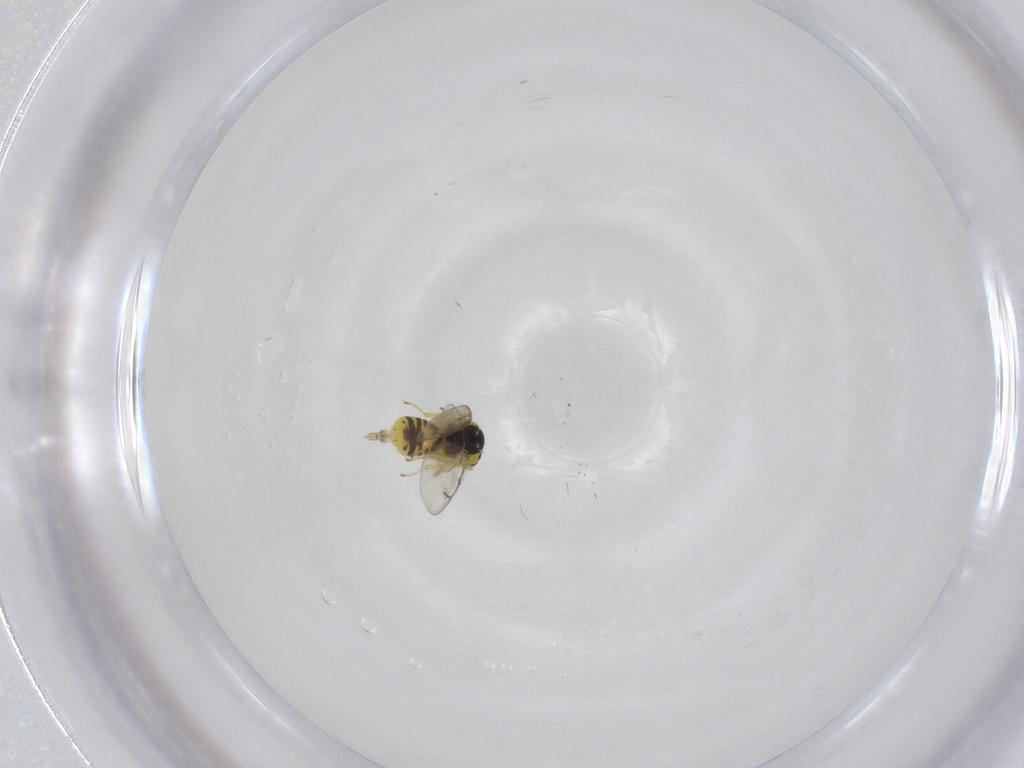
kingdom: Animalia
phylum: Arthropoda
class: Insecta
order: Hymenoptera
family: Eulophidae
